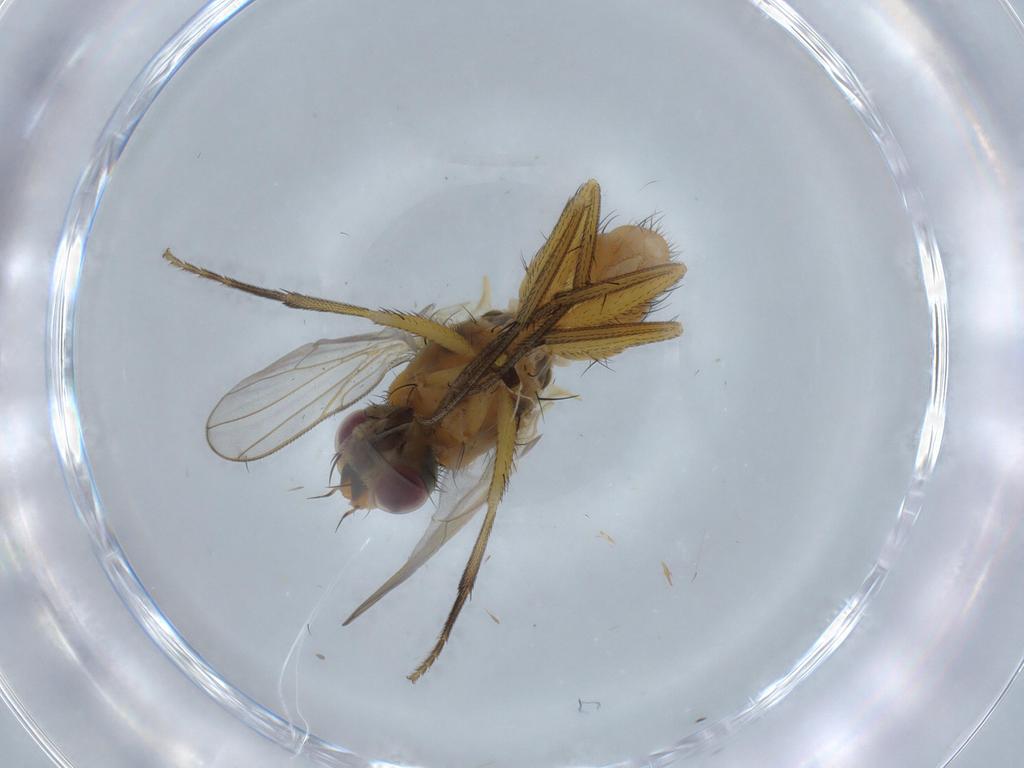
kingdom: Animalia
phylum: Arthropoda
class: Insecta
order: Diptera
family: Muscidae
